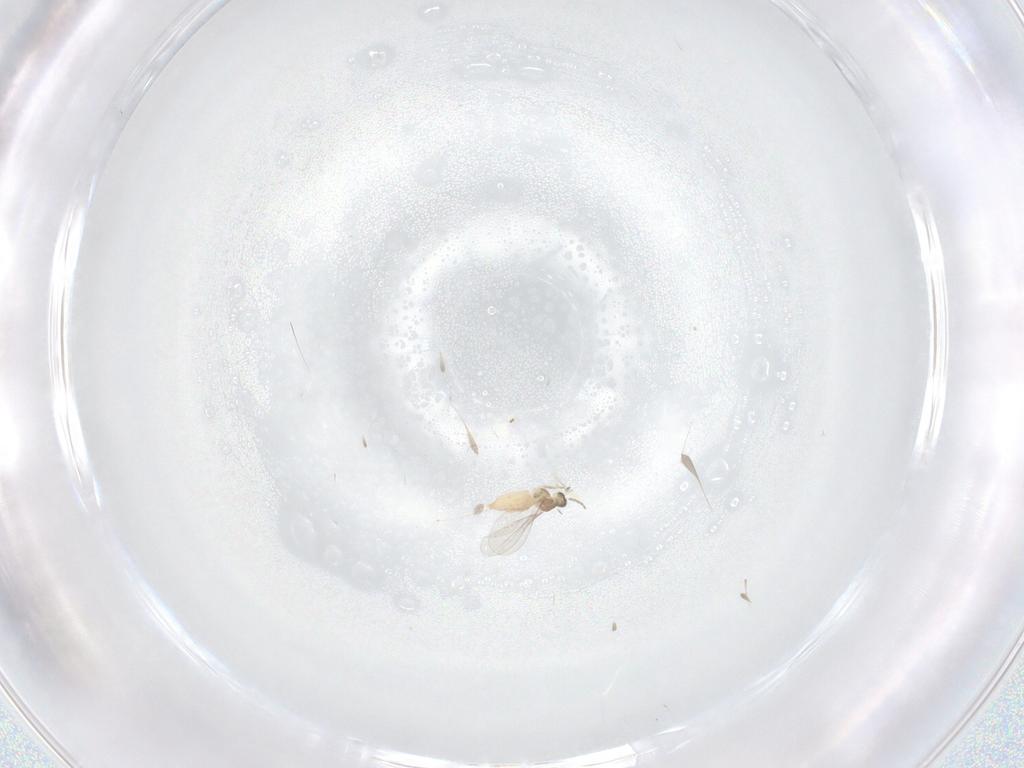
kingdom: Animalia
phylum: Arthropoda
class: Insecta
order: Diptera
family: Cecidomyiidae
